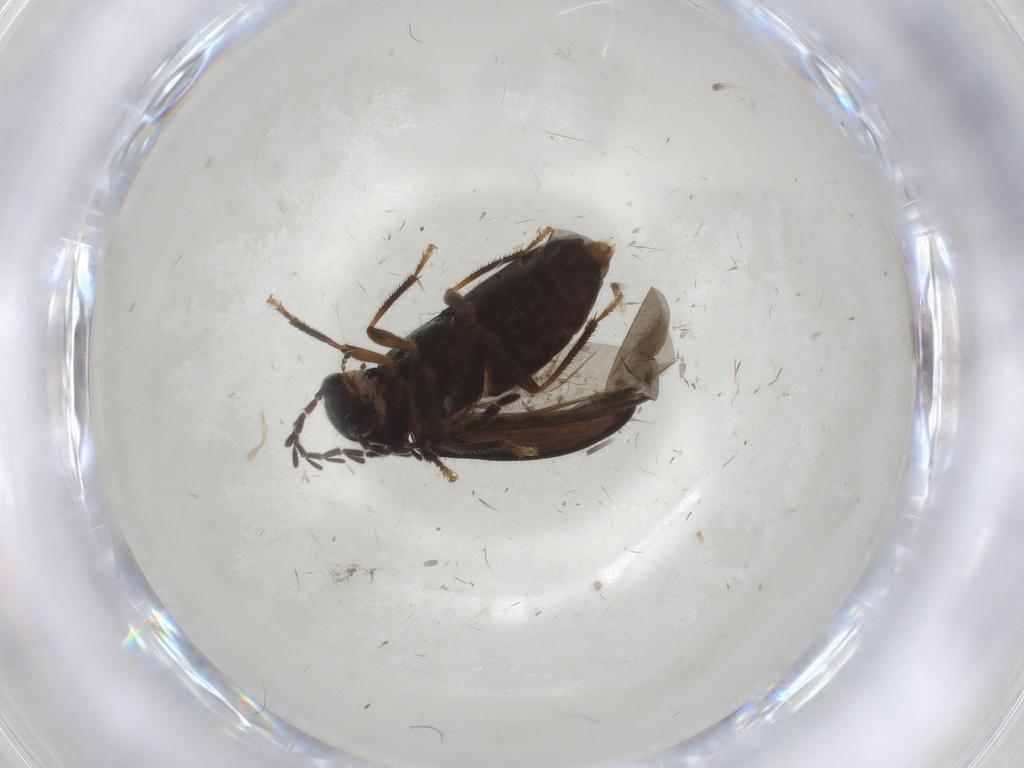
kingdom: Animalia
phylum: Arthropoda
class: Insecta
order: Coleoptera
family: Ptilodactylidae
